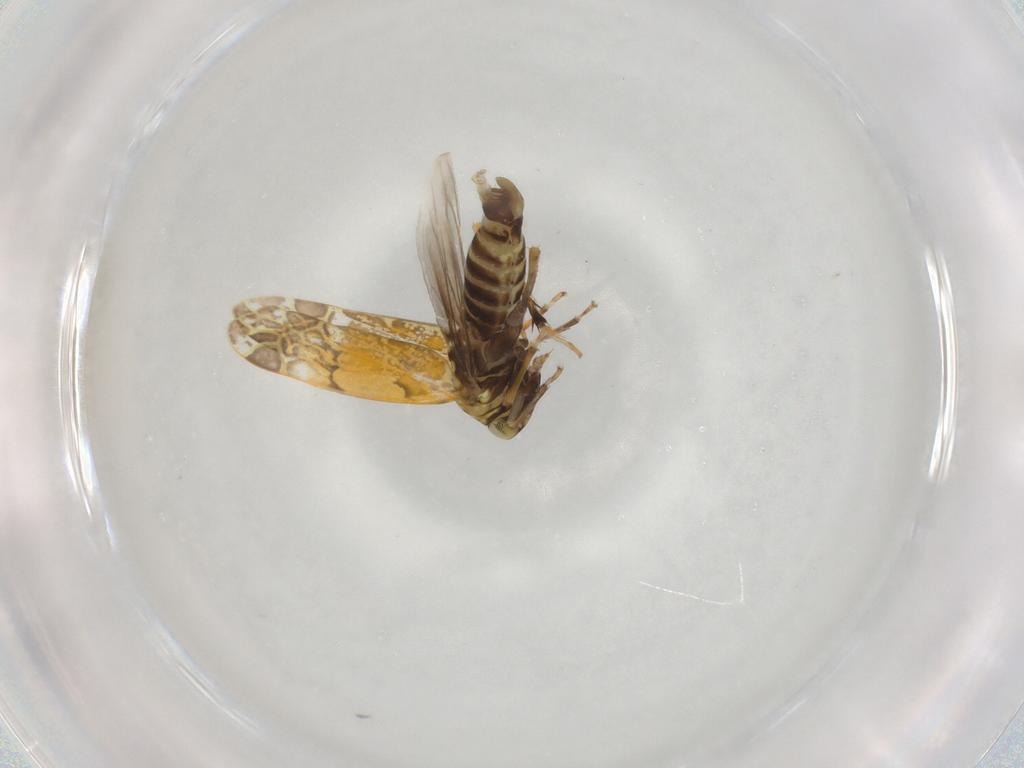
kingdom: Animalia
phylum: Arthropoda
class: Insecta
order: Hemiptera
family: Cicadellidae
